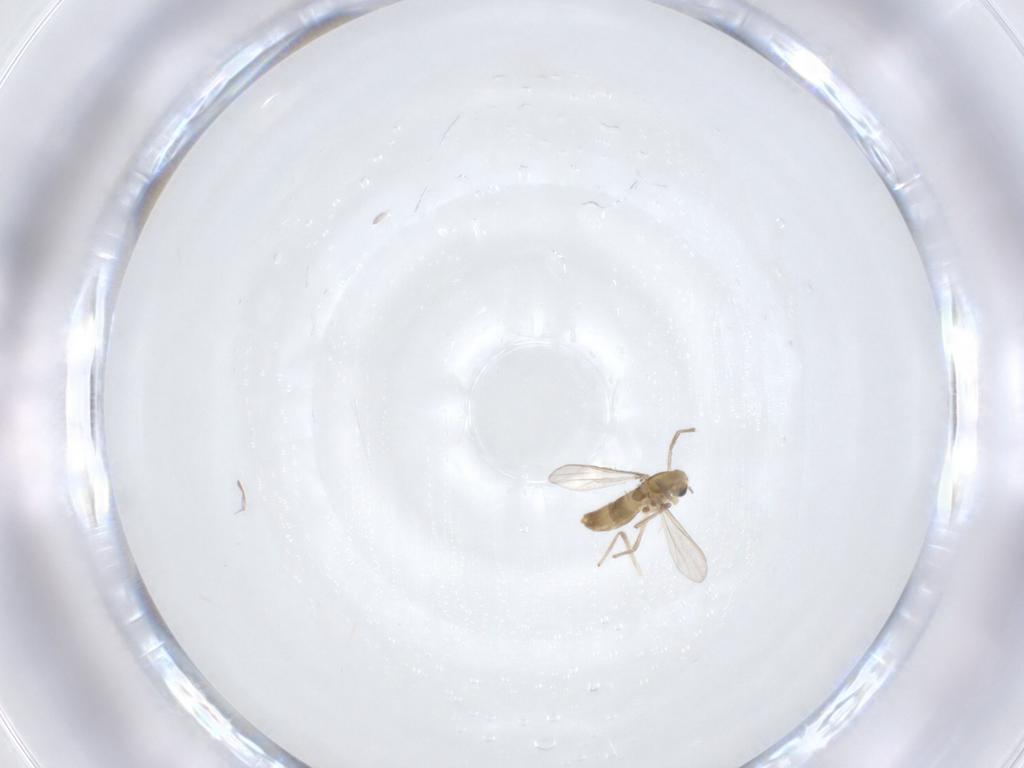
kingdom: Animalia
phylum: Arthropoda
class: Insecta
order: Diptera
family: Chironomidae
